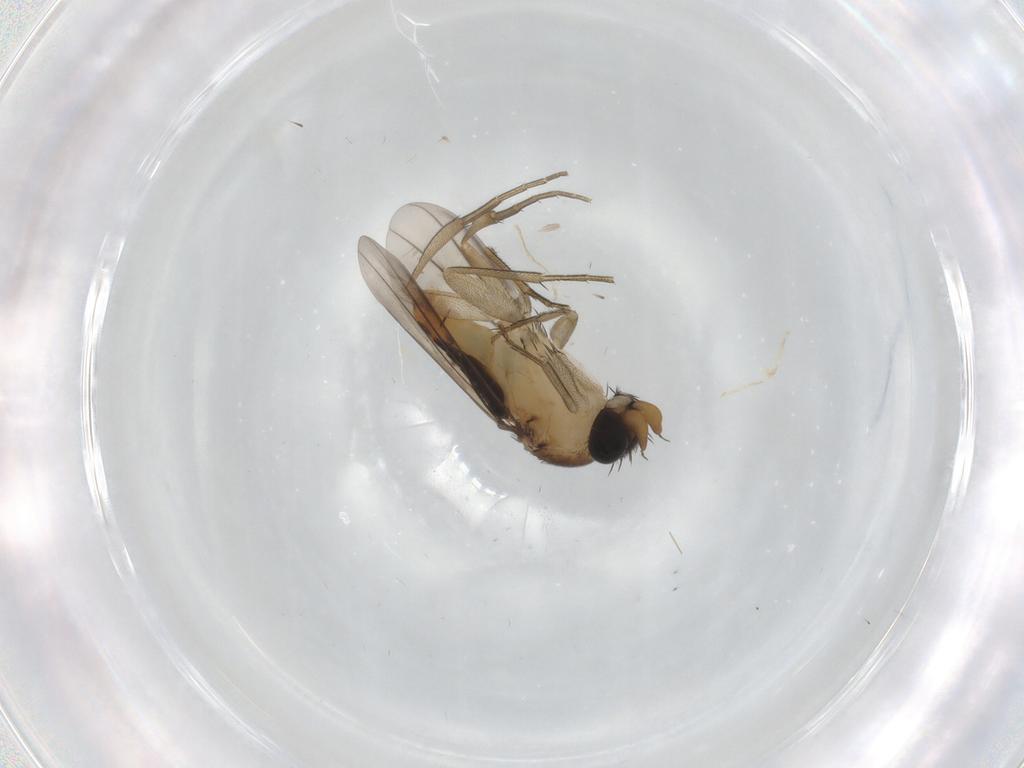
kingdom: Animalia
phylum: Arthropoda
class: Insecta
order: Diptera
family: Phoridae
